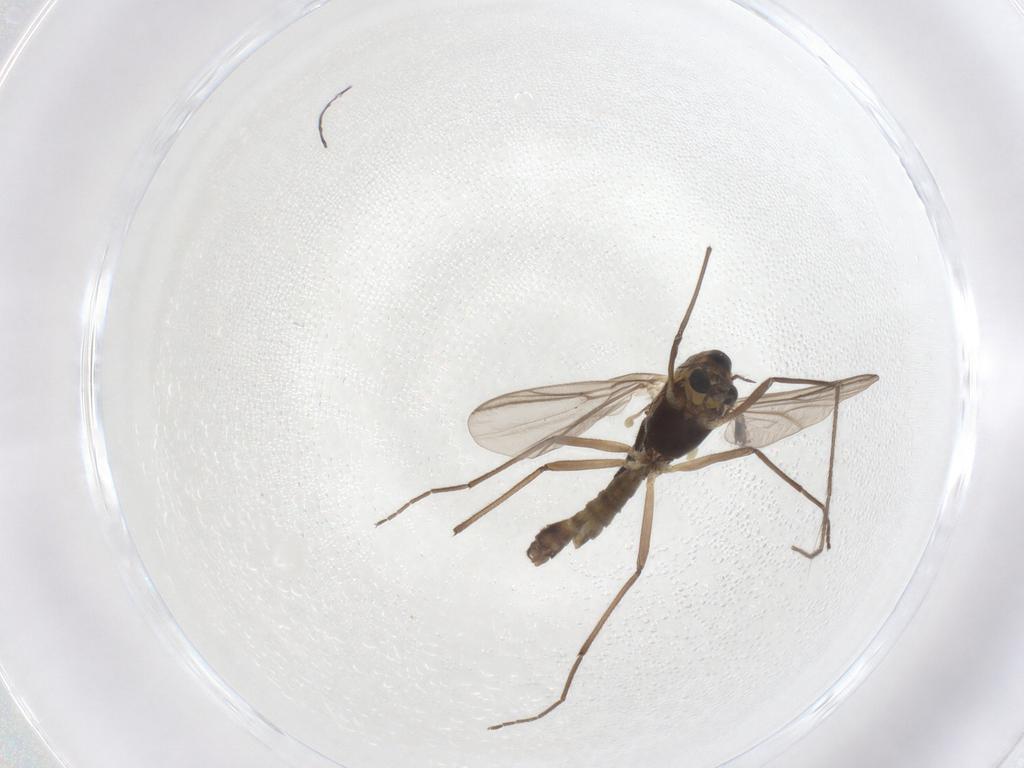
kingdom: Animalia
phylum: Arthropoda
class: Insecta
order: Diptera
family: Chironomidae
